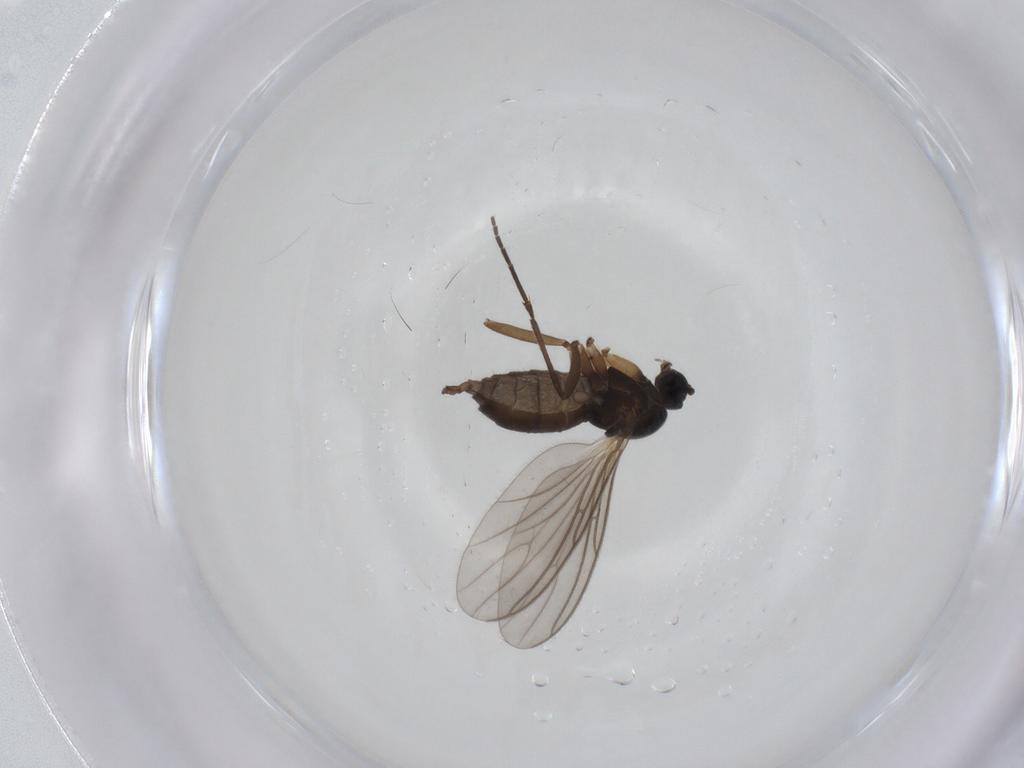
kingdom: Animalia
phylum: Arthropoda
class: Insecta
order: Diptera
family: Sciaridae
